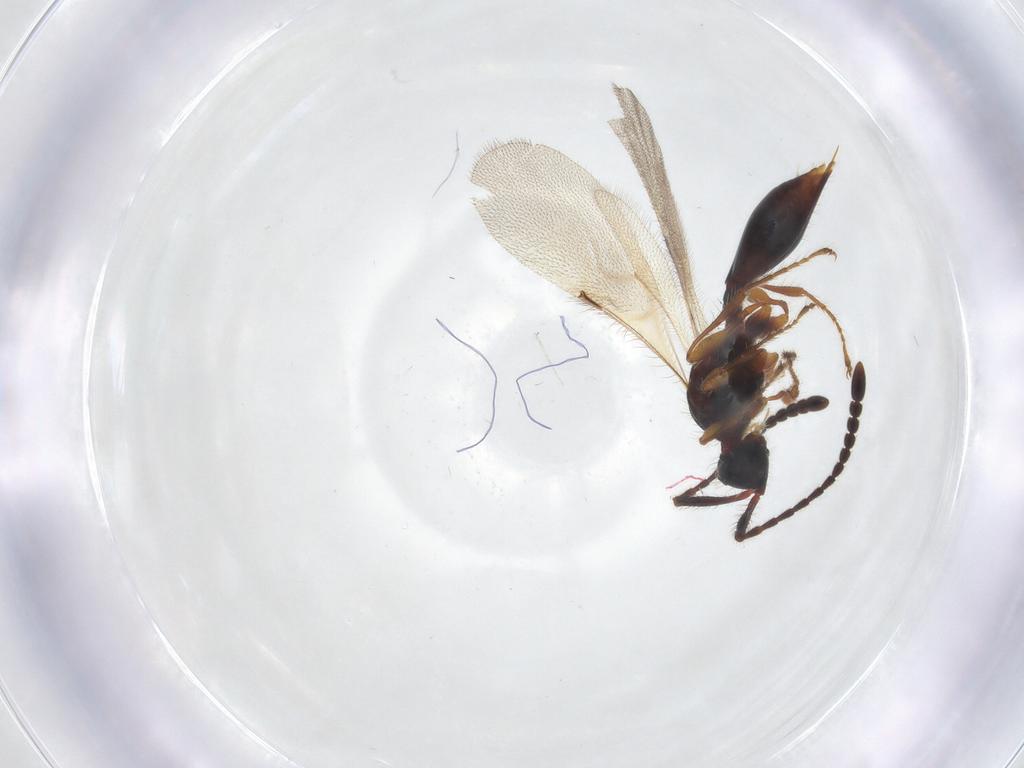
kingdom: Animalia
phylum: Arthropoda
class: Insecta
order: Hymenoptera
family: Diapriidae
